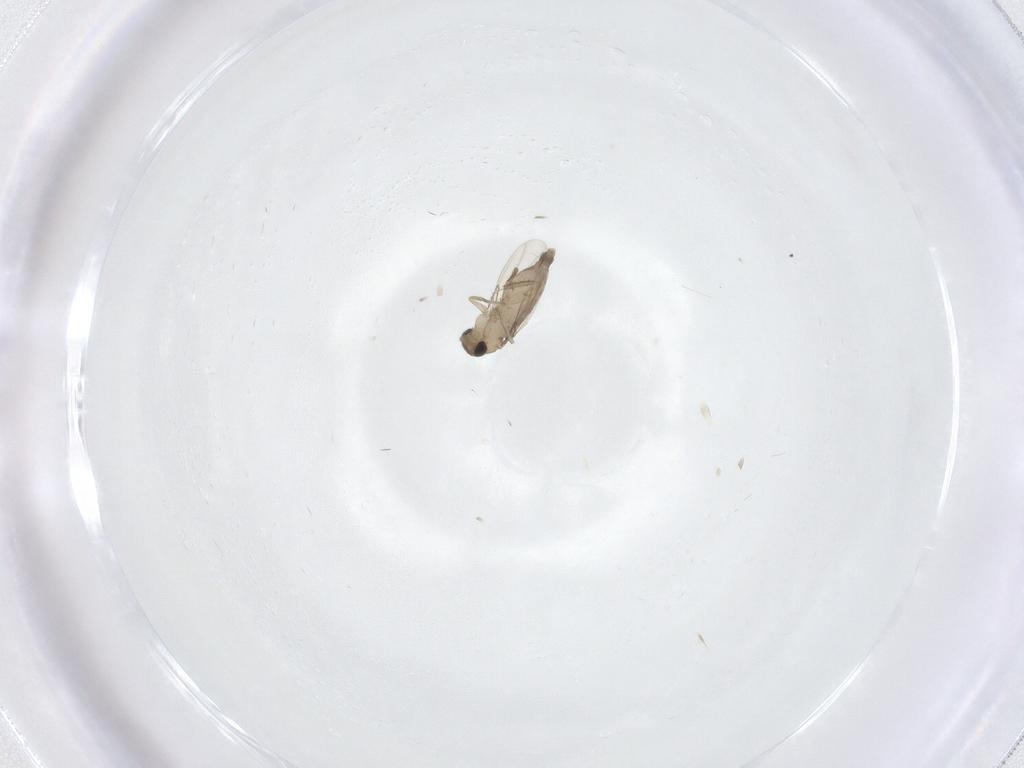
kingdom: Animalia
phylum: Arthropoda
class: Insecta
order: Diptera
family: Phoridae
